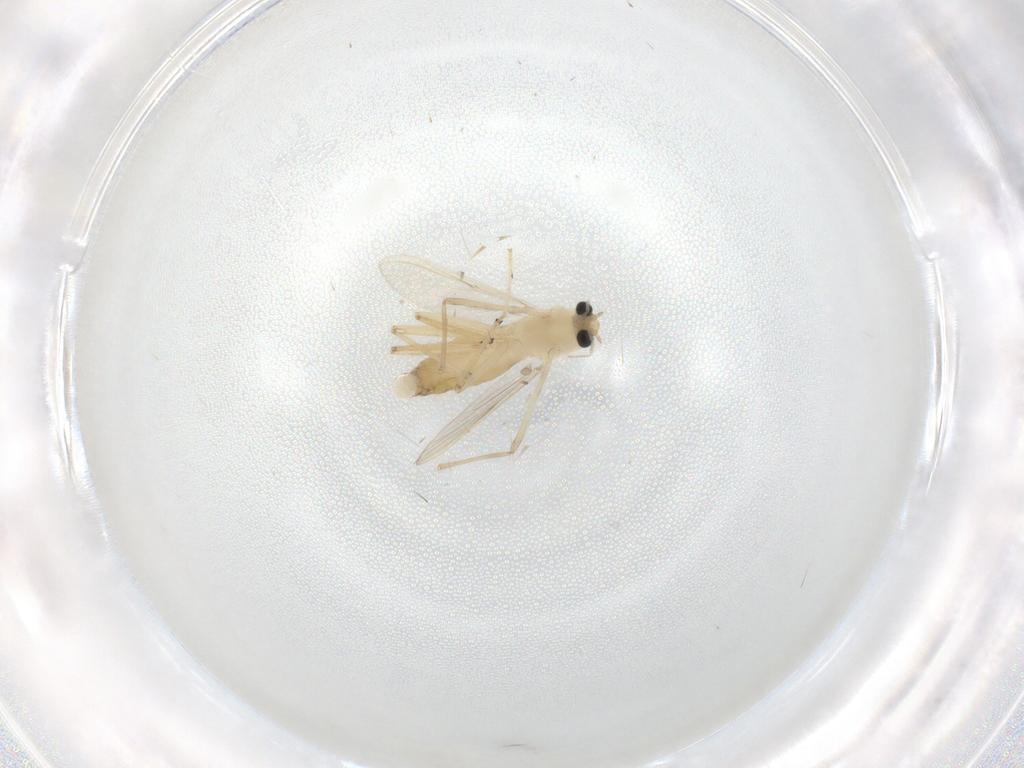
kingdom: Animalia
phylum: Arthropoda
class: Insecta
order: Diptera
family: Chironomidae
